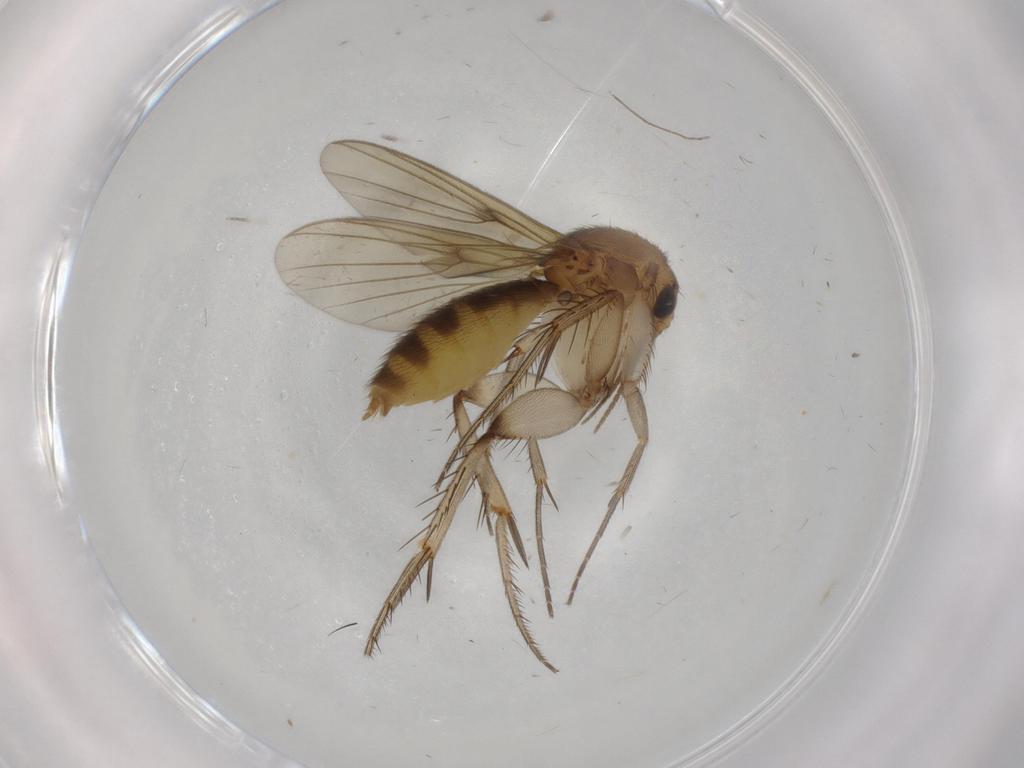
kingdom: Animalia
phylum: Arthropoda
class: Insecta
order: Diptera
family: Mycetophilidae
